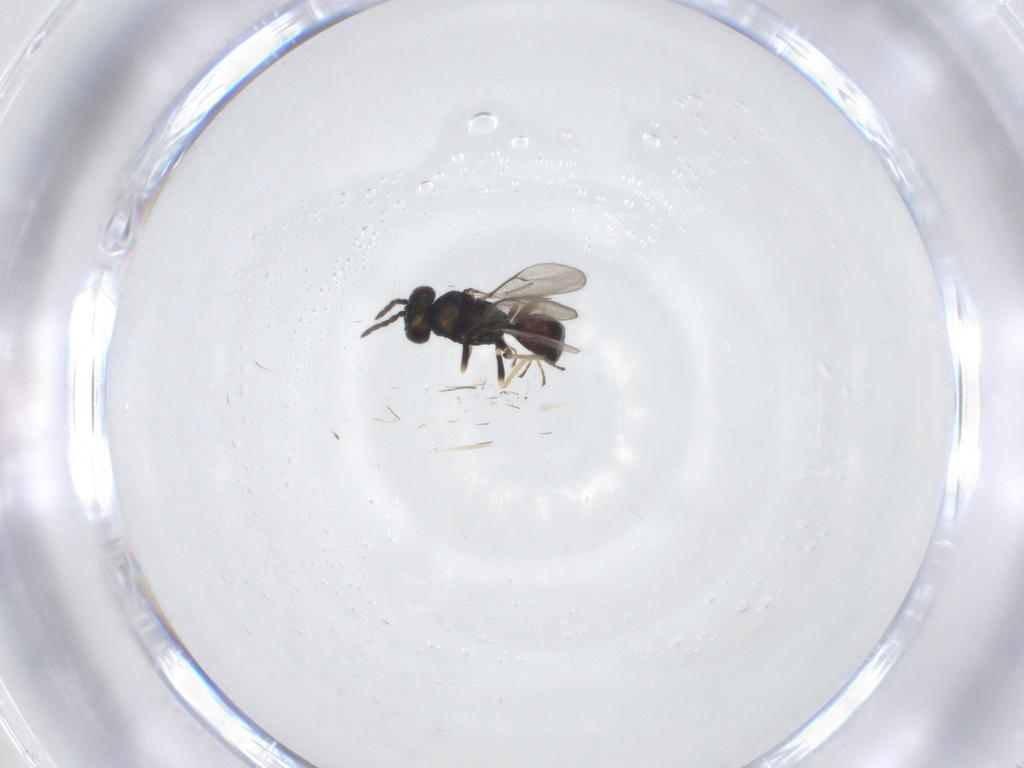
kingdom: Animalia
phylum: Arthropoda
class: Insecta
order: Hymenoptera
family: Eulophidae
